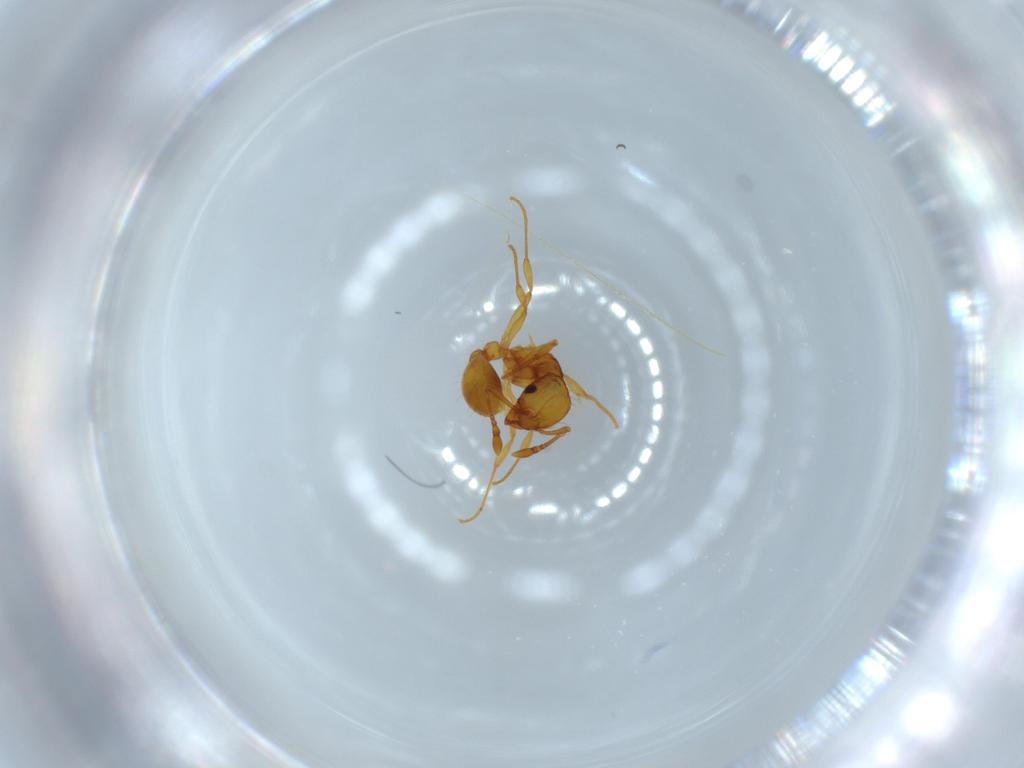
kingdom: Animalia
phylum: Arthropoda
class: Insecta
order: Hymenoptera
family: Formicidae
